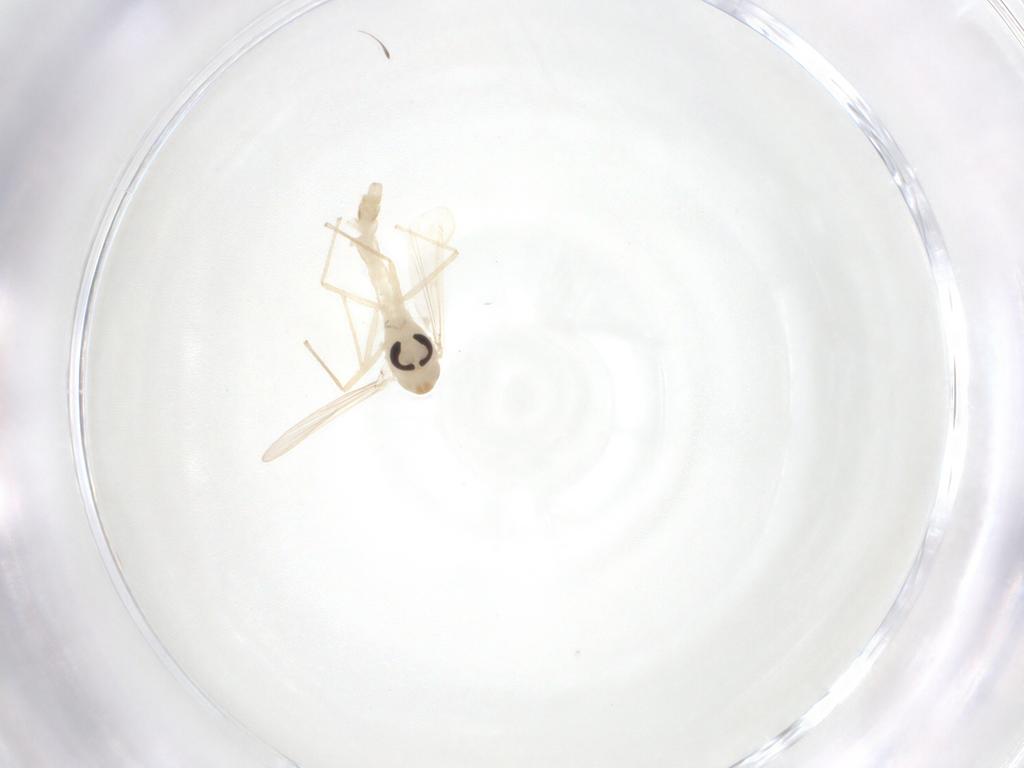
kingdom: Animalia
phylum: Arthropoda
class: Insecta
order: Diptera
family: Chironomidae
